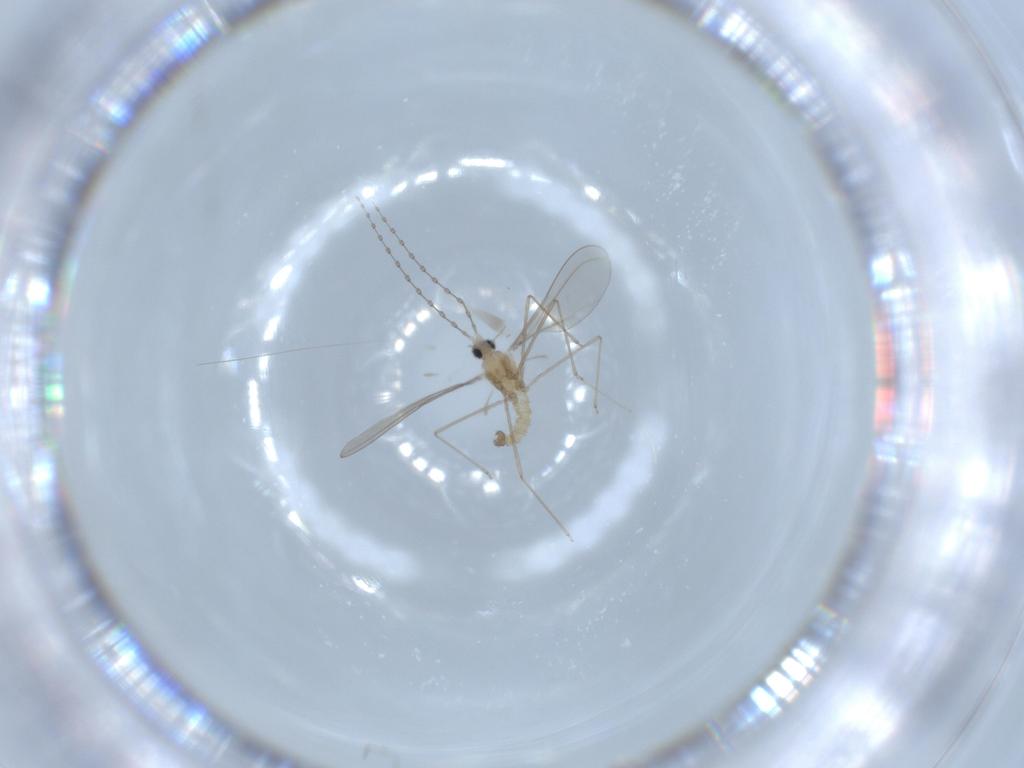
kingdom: Animalia
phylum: Arthropoda
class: Insecta
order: Diptera
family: Cecidomyiidae
